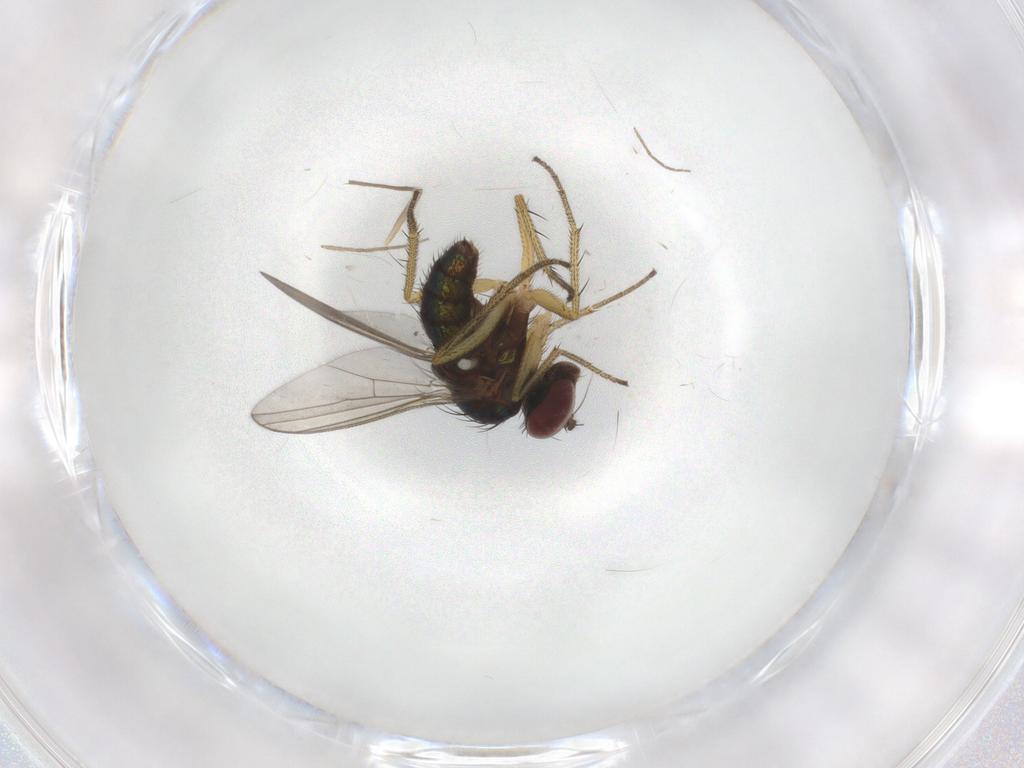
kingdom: Animalia
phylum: Arthropoda
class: Insecta
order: Diptera
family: Chironomidae
